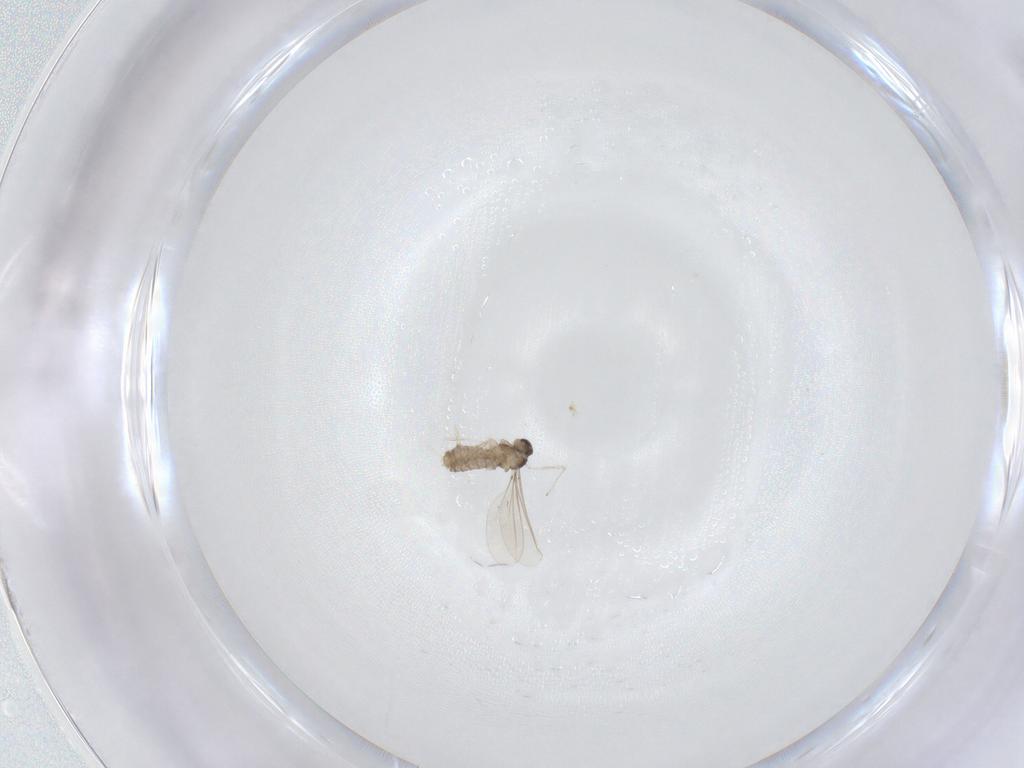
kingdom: Animalia
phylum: Arthropoda
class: Insecta
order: Diptera
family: Cecidomyiidae
